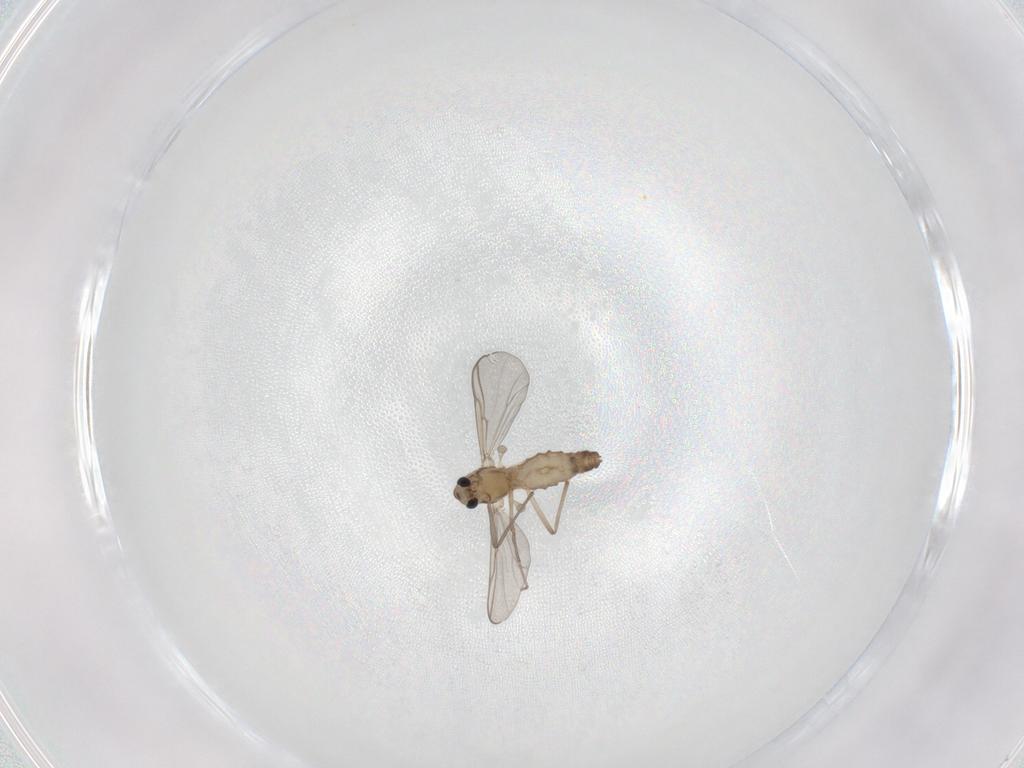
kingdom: Animalia
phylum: Arthropoda
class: Insecta
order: Diptera
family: Chironomidae
